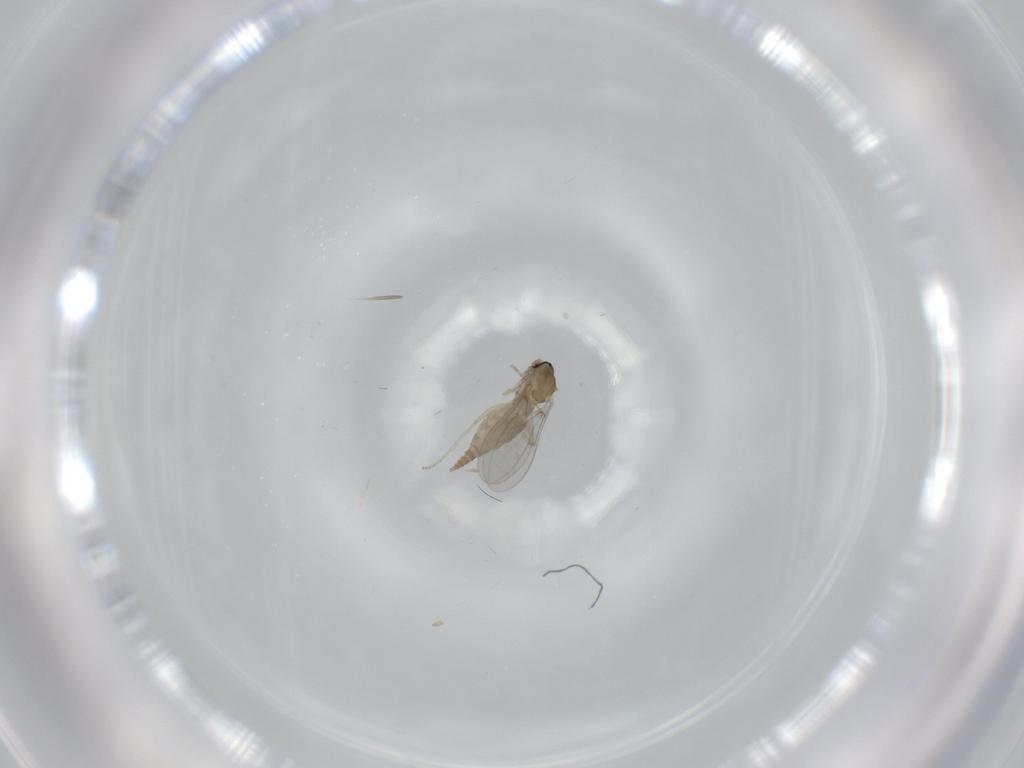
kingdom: Animalia
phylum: Arthropoda
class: Insecta
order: Diptera
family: Cecidomyiidae
